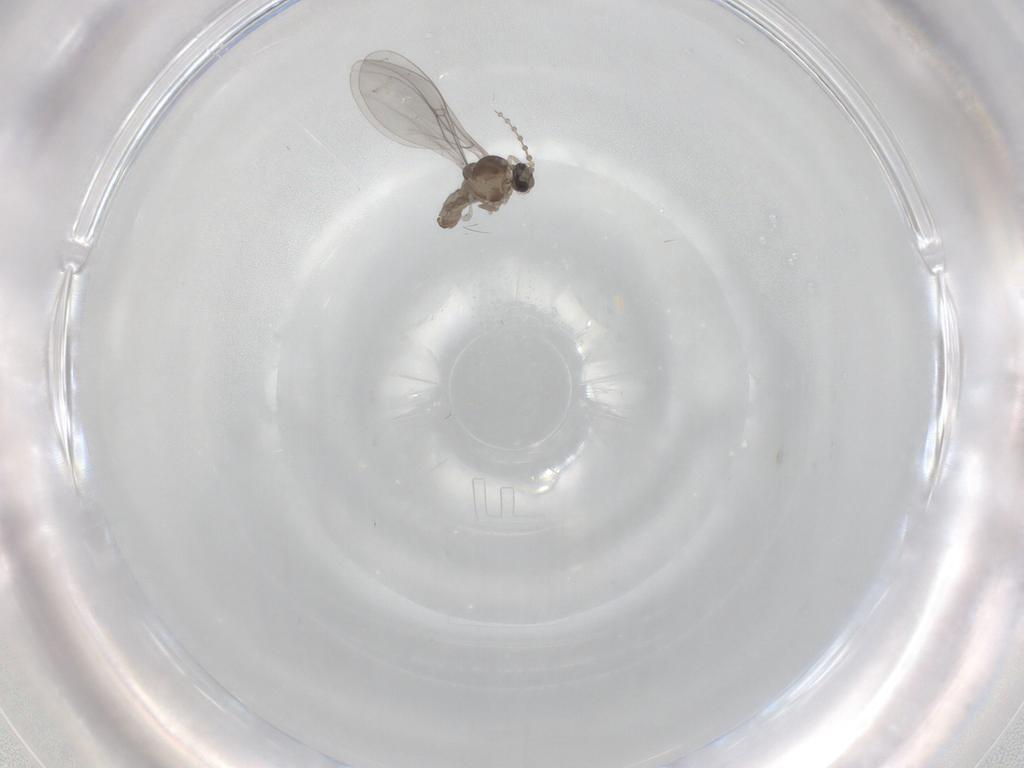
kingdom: Animalia
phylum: Arthropoda
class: Insecta
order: Diptera
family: Cecidomyiidae
